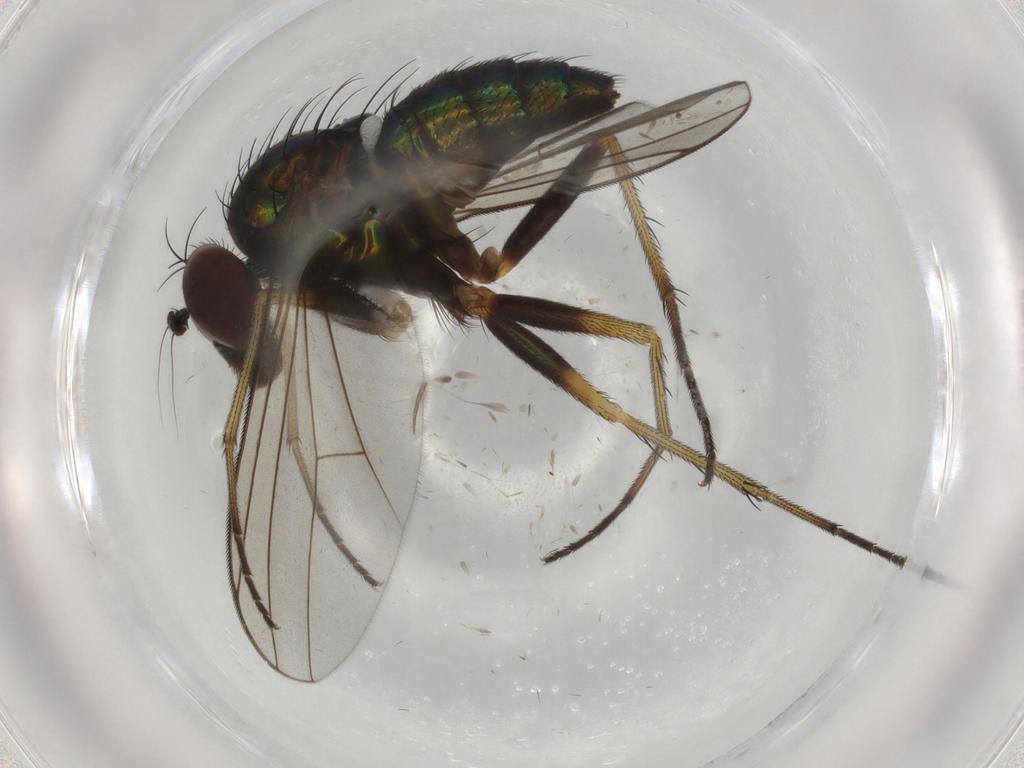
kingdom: Animalia
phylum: Arthropoda
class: Insecta
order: Diptera
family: Dolichopodidae
